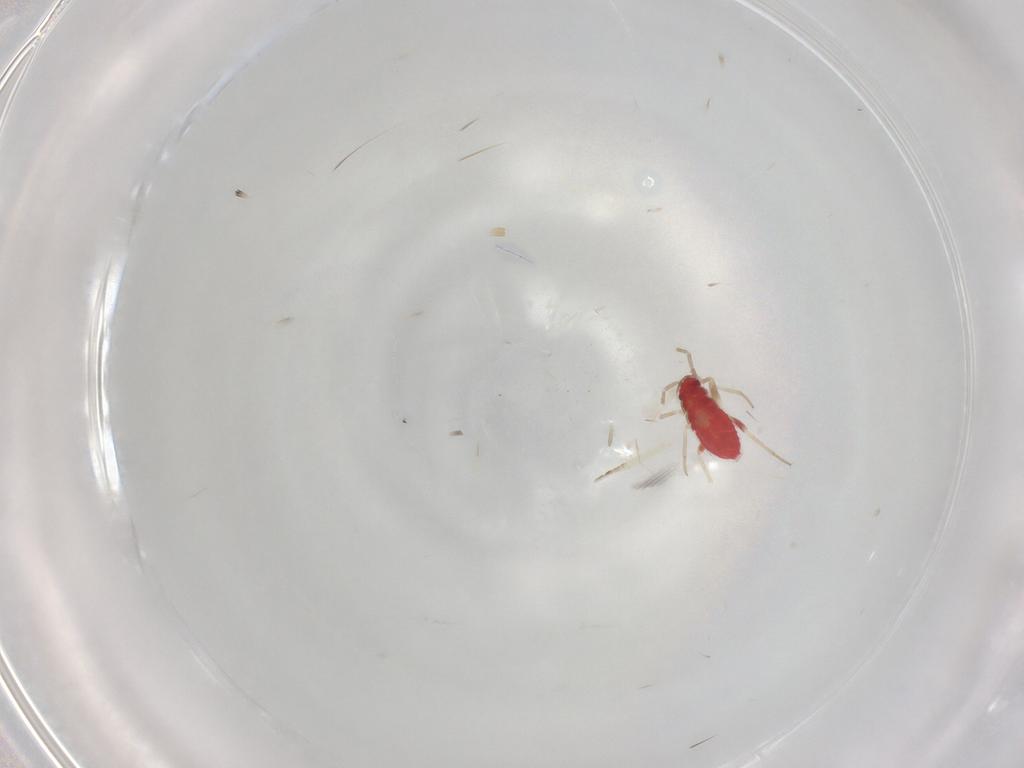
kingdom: Animalia
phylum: Arthropoda
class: Insecta
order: Hemiptera
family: Miridae
